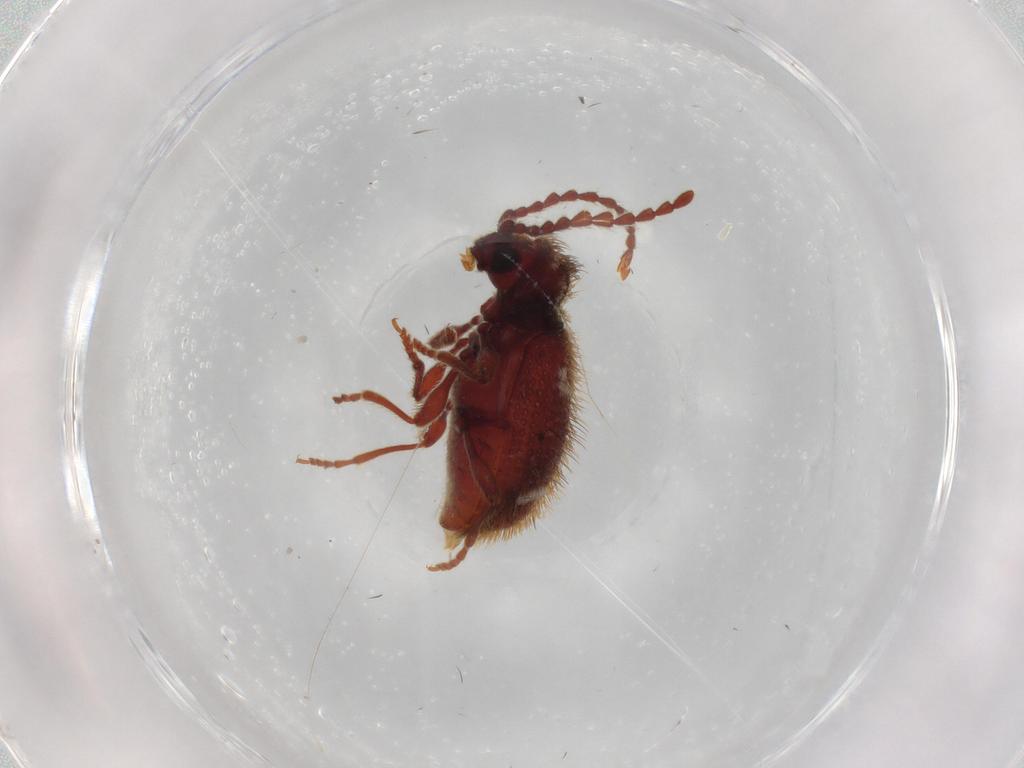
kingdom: Animalia
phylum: Arthropoda
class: Insecta
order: Coleoptera
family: Ptinidae
